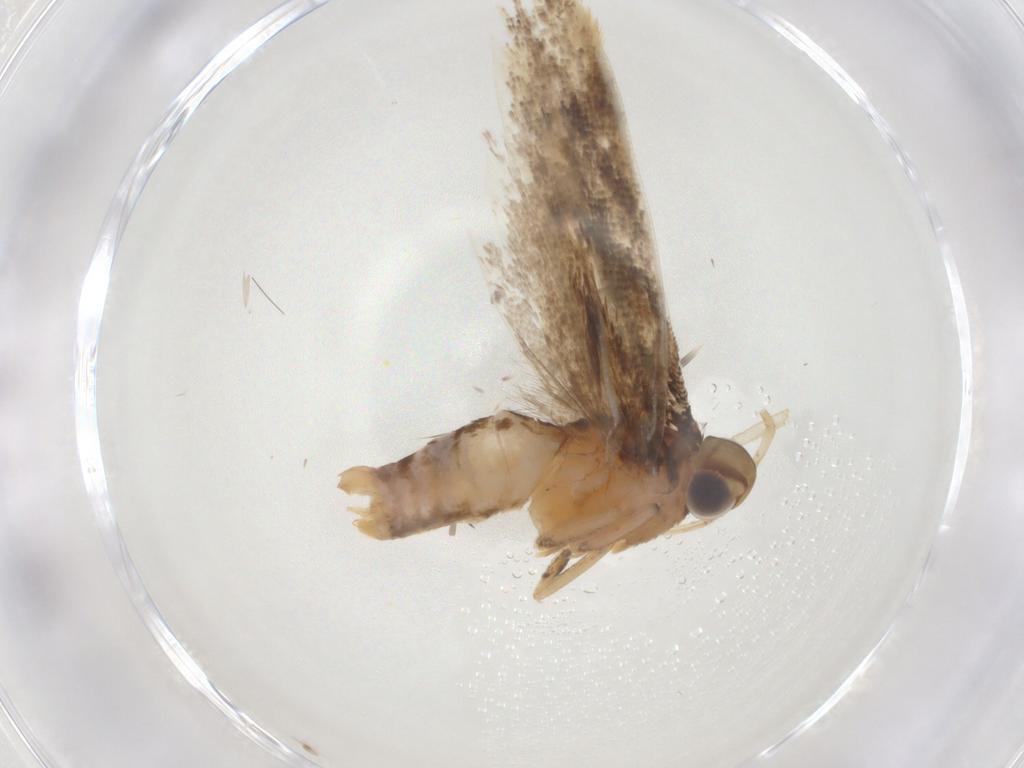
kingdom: Animalia
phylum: Arthropoda
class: Insecta
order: Lepidoptera
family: Gelechiidae
